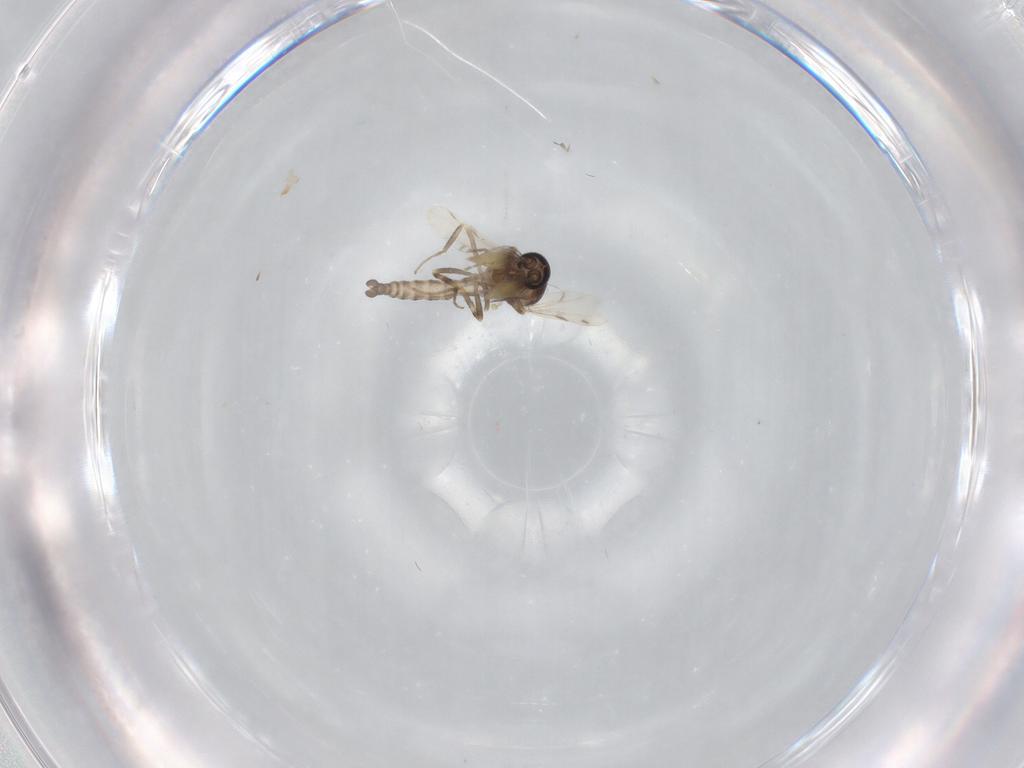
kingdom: Animalia
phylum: Arthropoda
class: Insecta
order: Diptera
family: Ceratopogonidae
